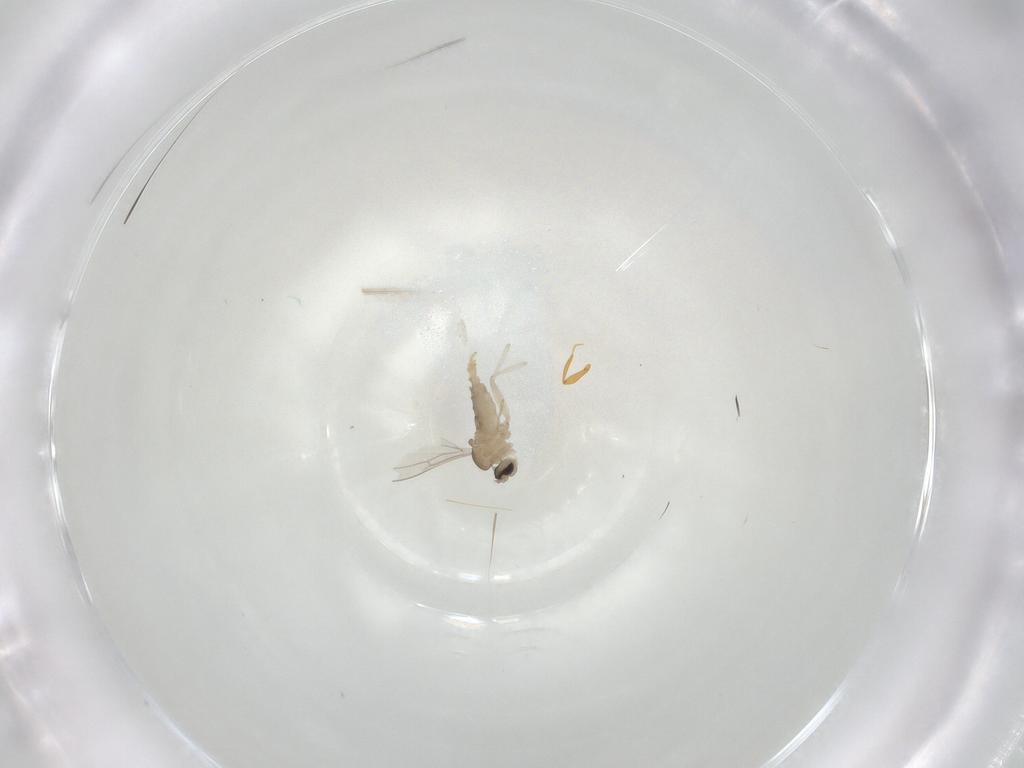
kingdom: Animalia
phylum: Arthropoda
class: Insecta
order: Diptera
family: Cecidomyiidae
